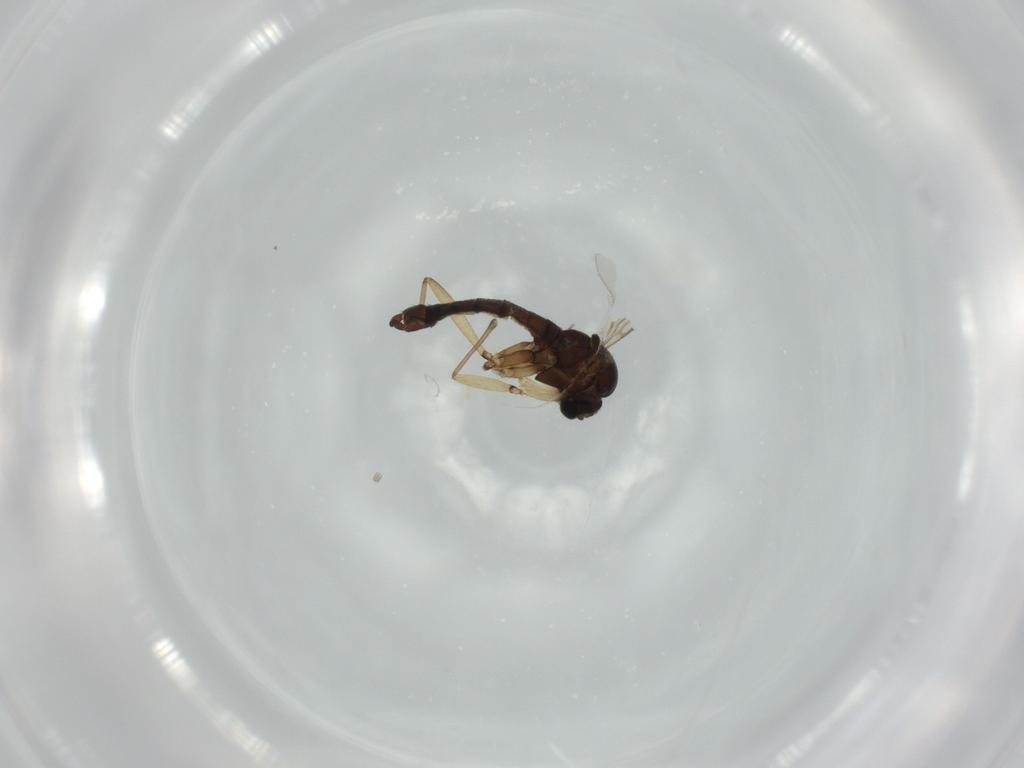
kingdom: Animalia
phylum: Arthropoda
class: Insecta
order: Diptera
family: Sciaridae
